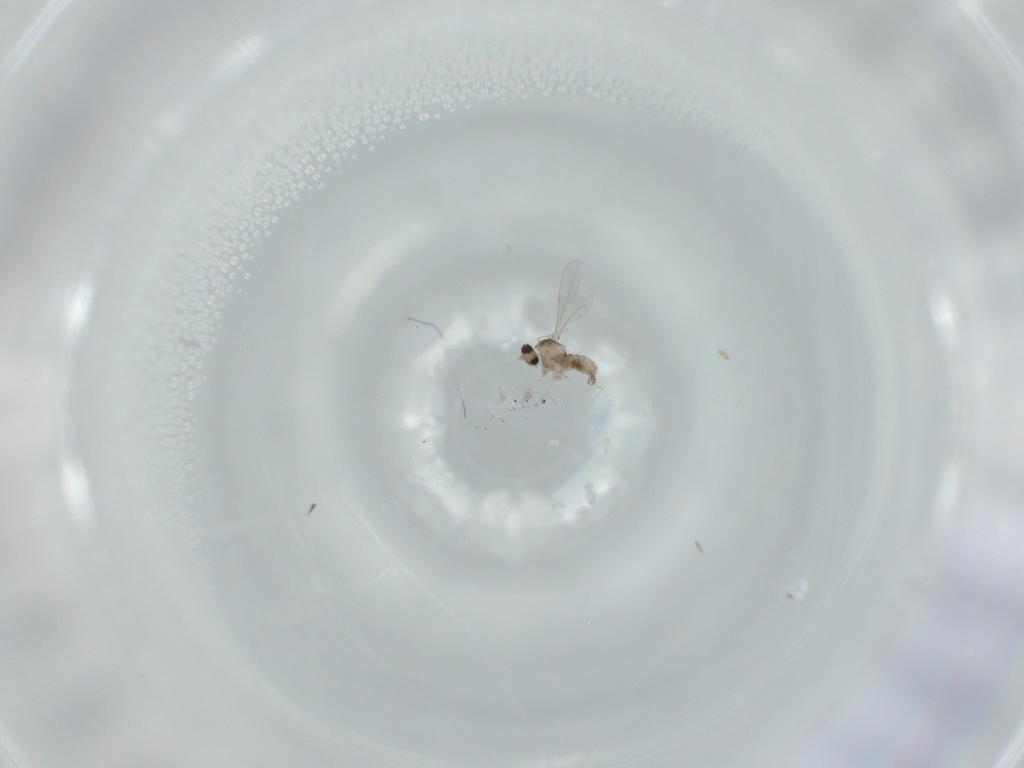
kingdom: Animalia
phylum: Arthropoda
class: Insecta
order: Diptera
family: Cecidomyiidae
